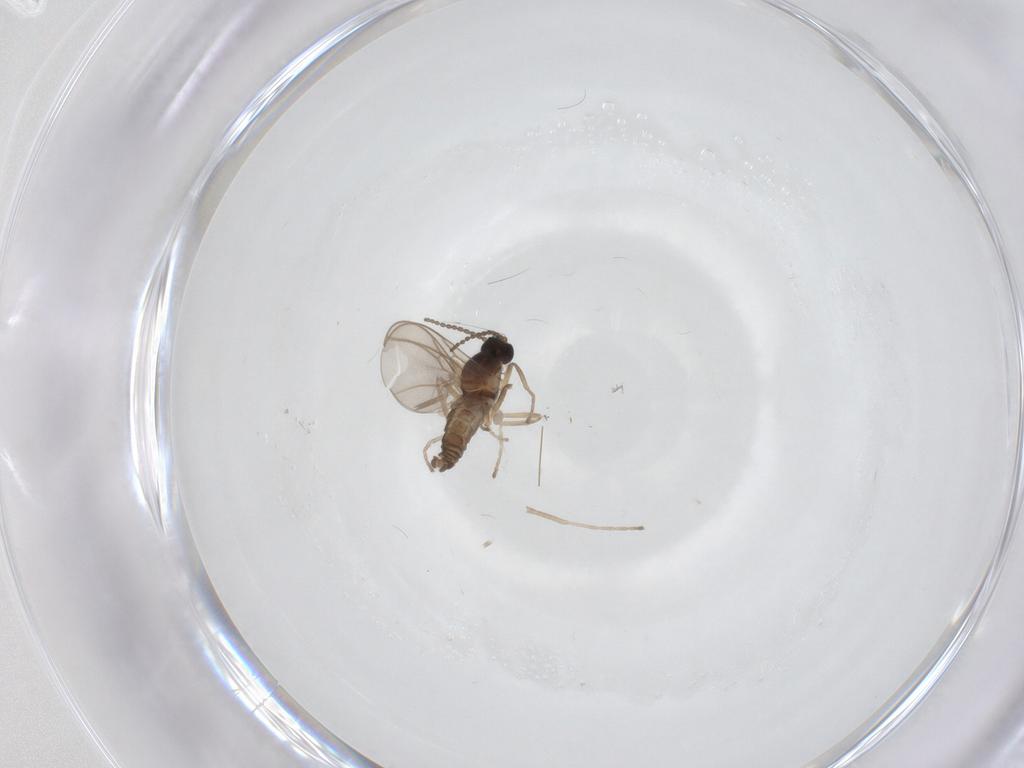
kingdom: Animalia
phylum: Arthropoda
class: Insecta
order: Diptera
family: Cecidomyiidae
